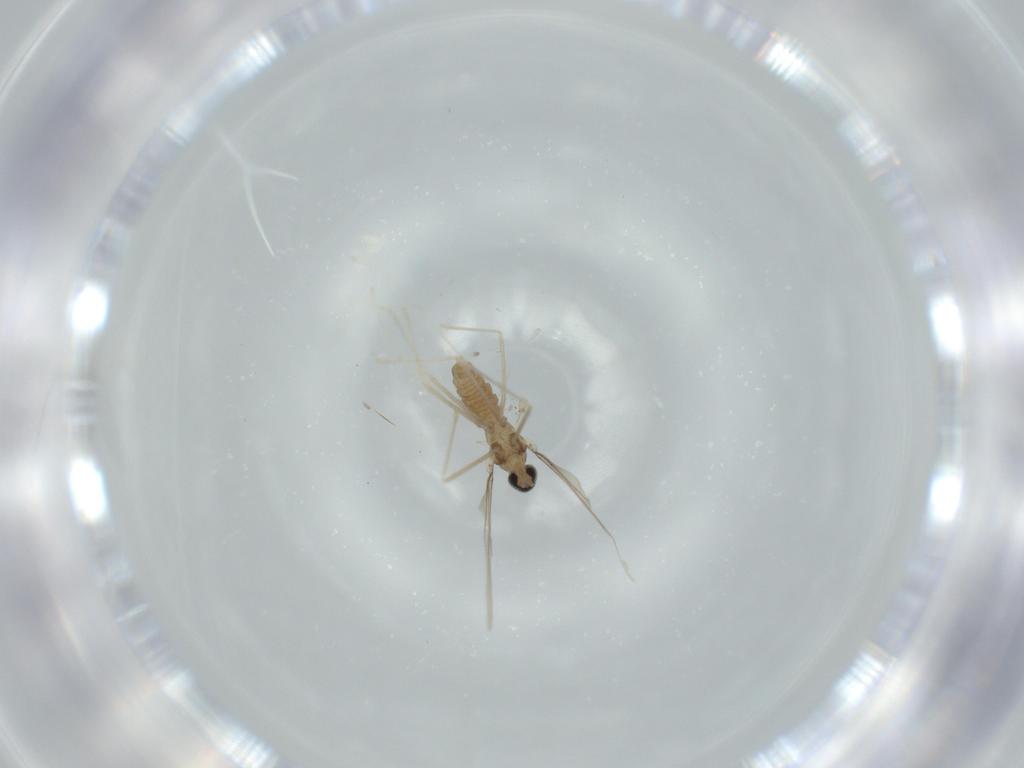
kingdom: Animalia
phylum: Arthropoda
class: Insecta
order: Diptera
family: Cecidomyiidae
